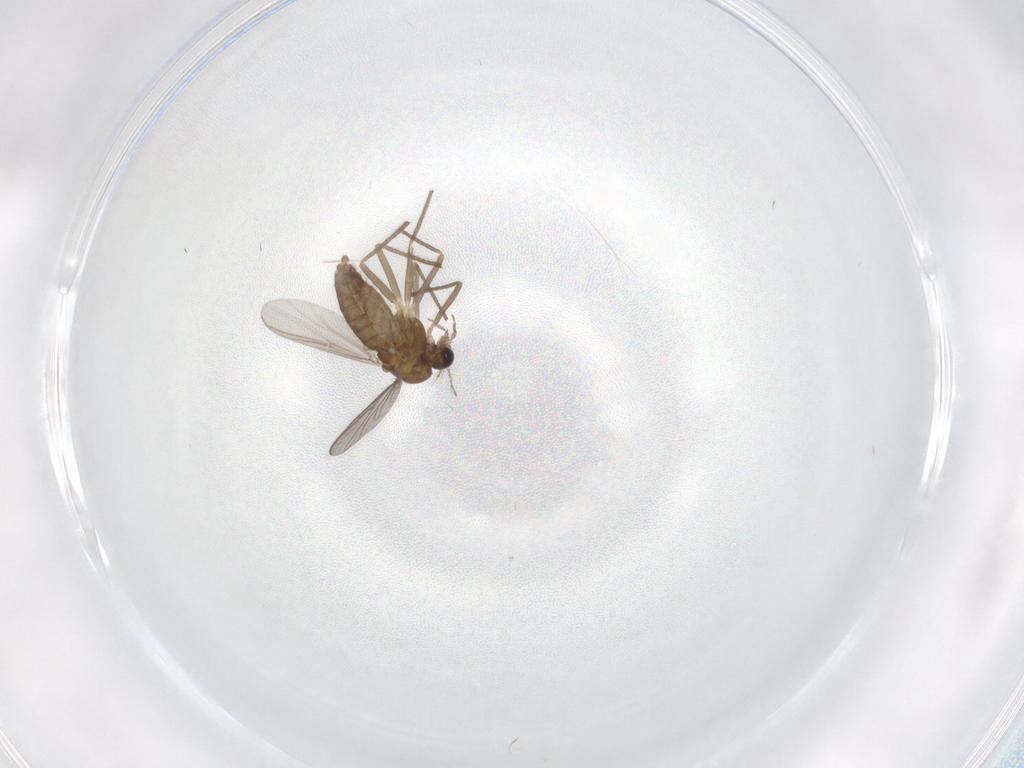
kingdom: Animalia
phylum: Arthropoda
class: Insecta
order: Diptera
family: Chironomidae
